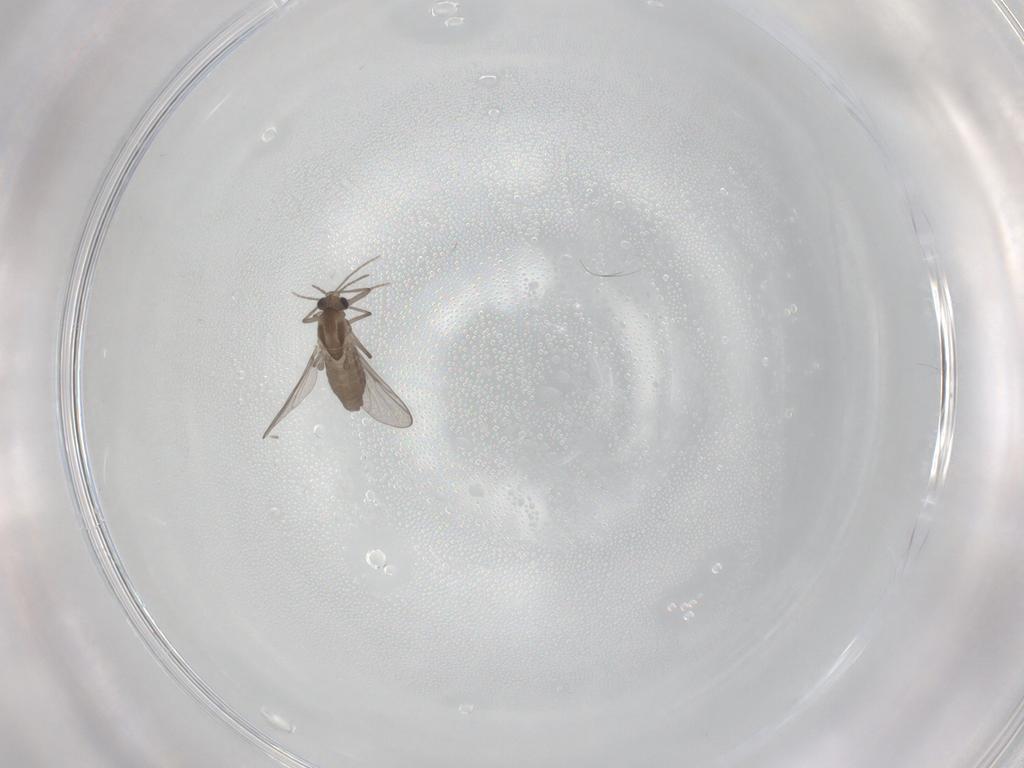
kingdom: Animalia
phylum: Arthropoda
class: Insecta
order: Diptera
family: Chironomidae
